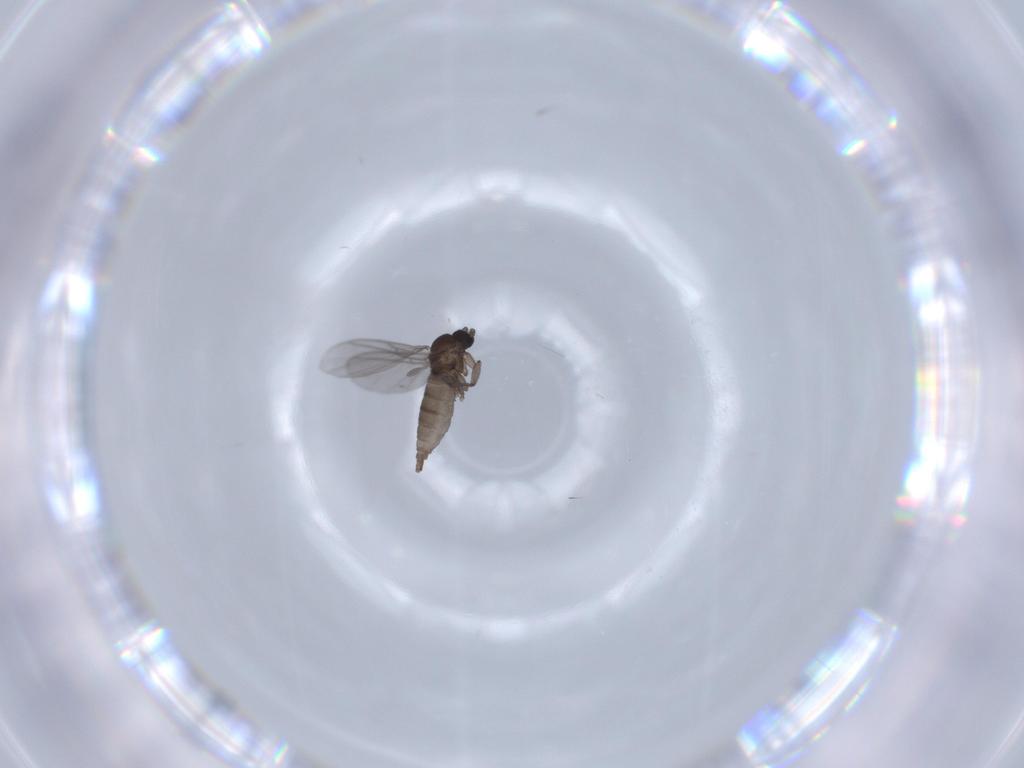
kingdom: Animalia
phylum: Arthropoda
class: Insecta
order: Diptera
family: Sciaridae
